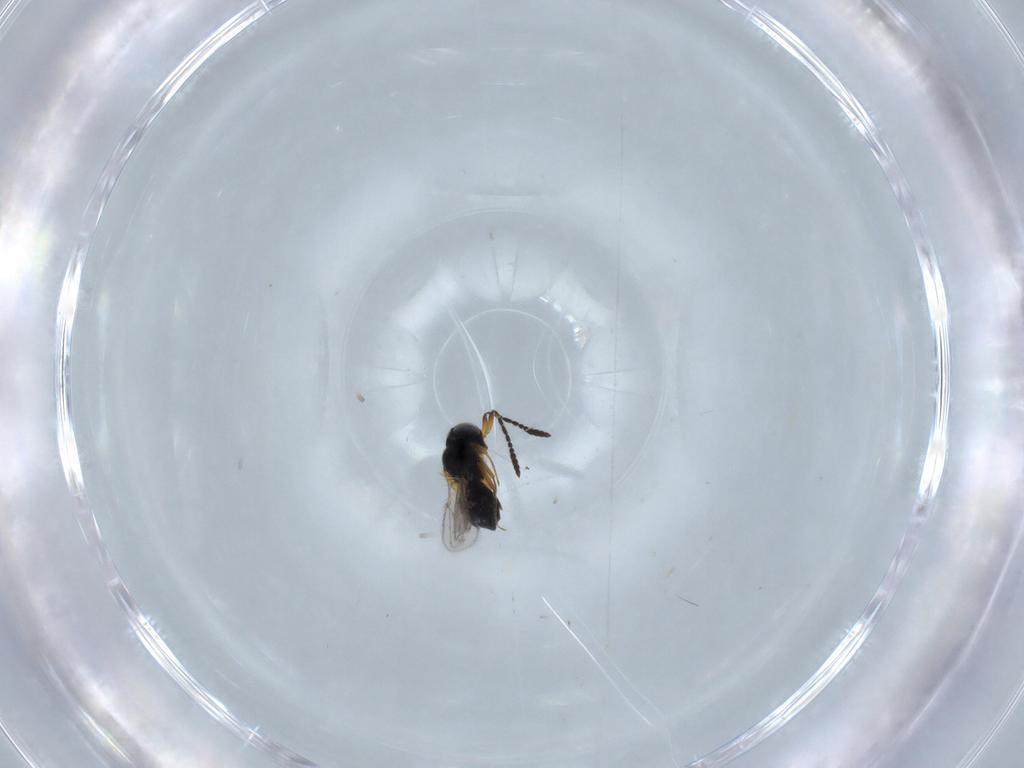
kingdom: Animalia
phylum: Arthropoda
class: Insecta
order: Hymenoptera
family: Scelionidae
